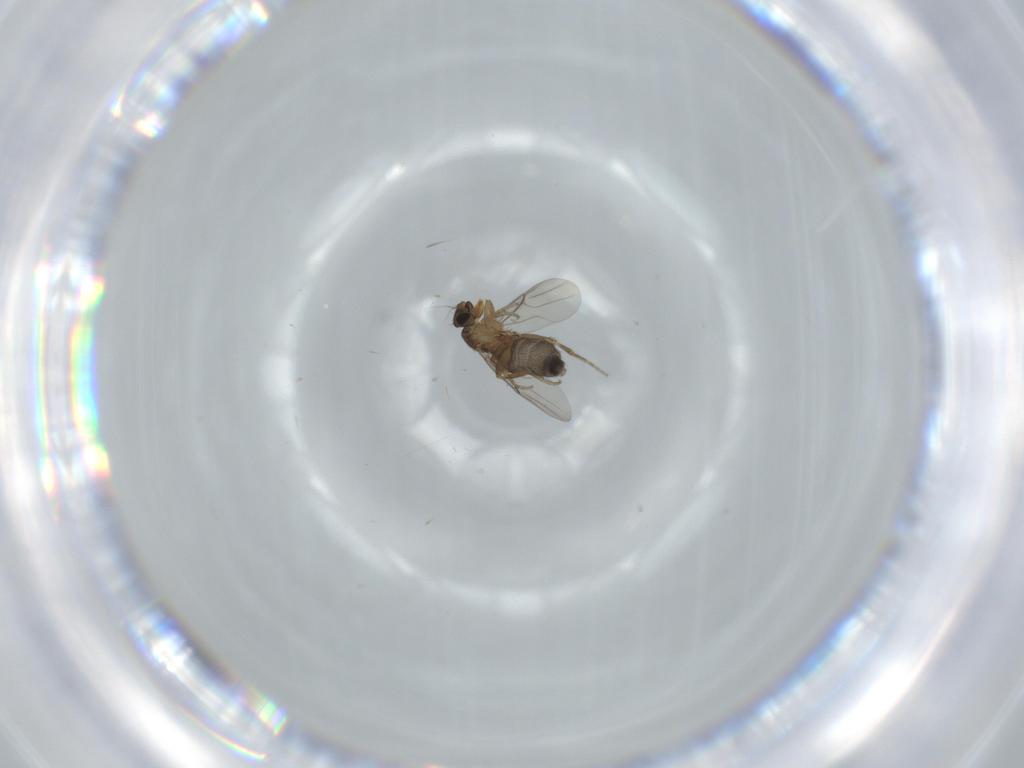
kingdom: Animalia
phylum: Arthropoda
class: Insecta
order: Diptera
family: Phoridae
